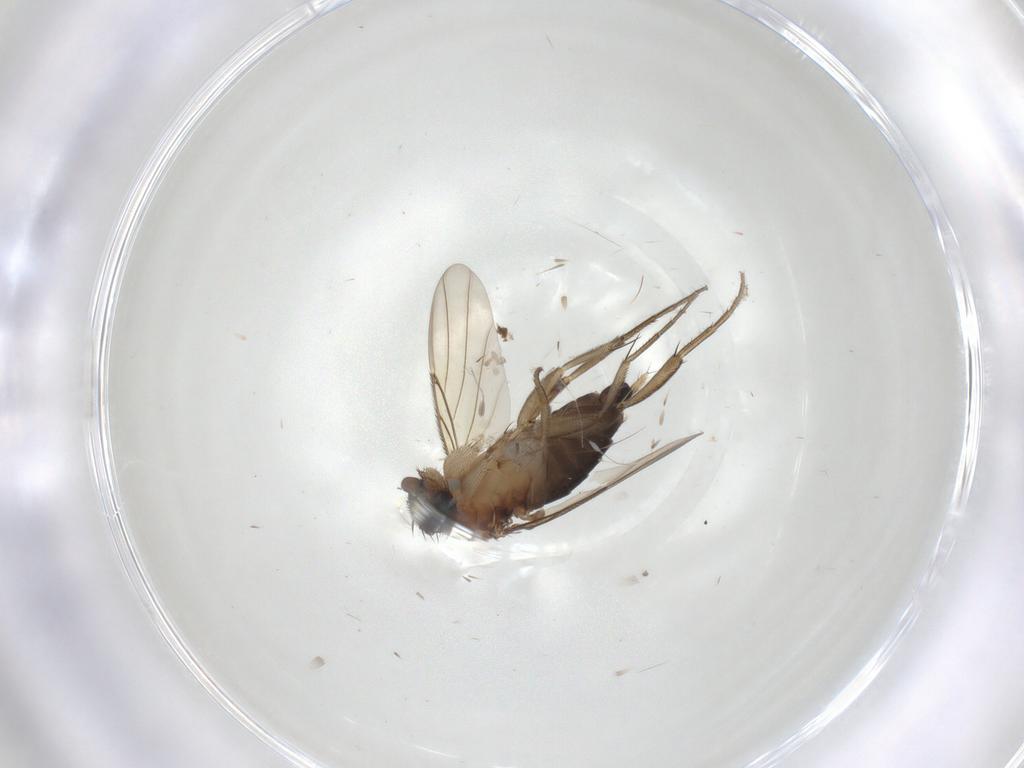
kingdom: Animalia
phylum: Arthropoda
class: Insecta
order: Diptera
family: Phoridae
